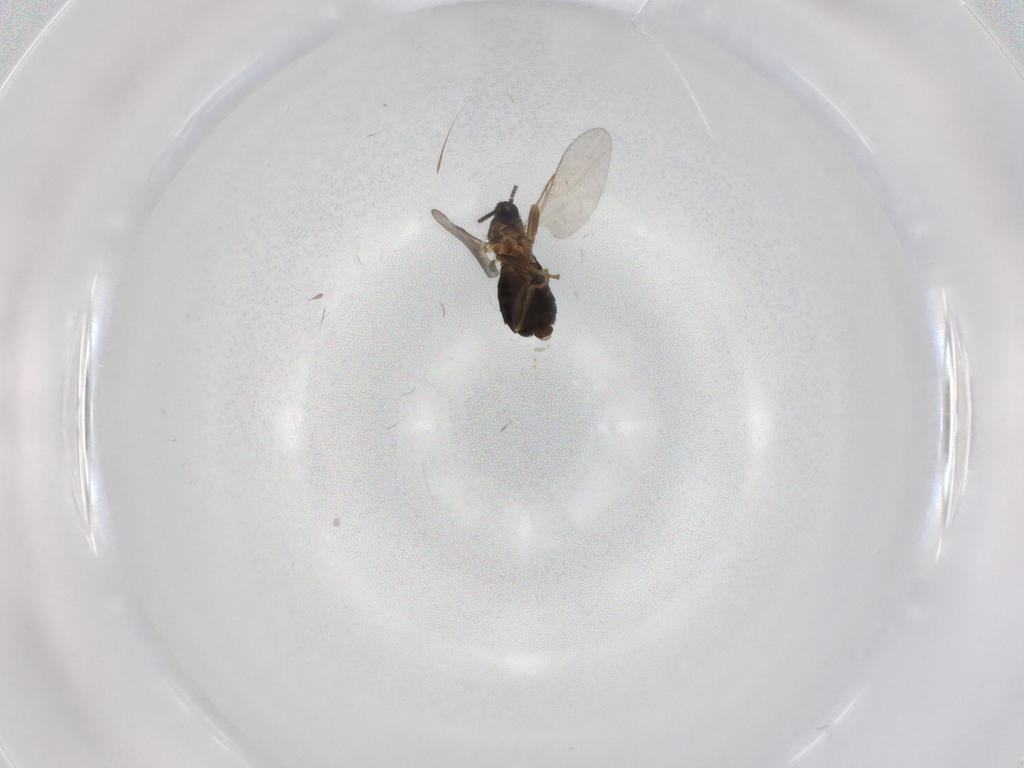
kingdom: Animalia
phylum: Arthropoda
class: Insecta
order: Diptera
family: Scatopsidae
